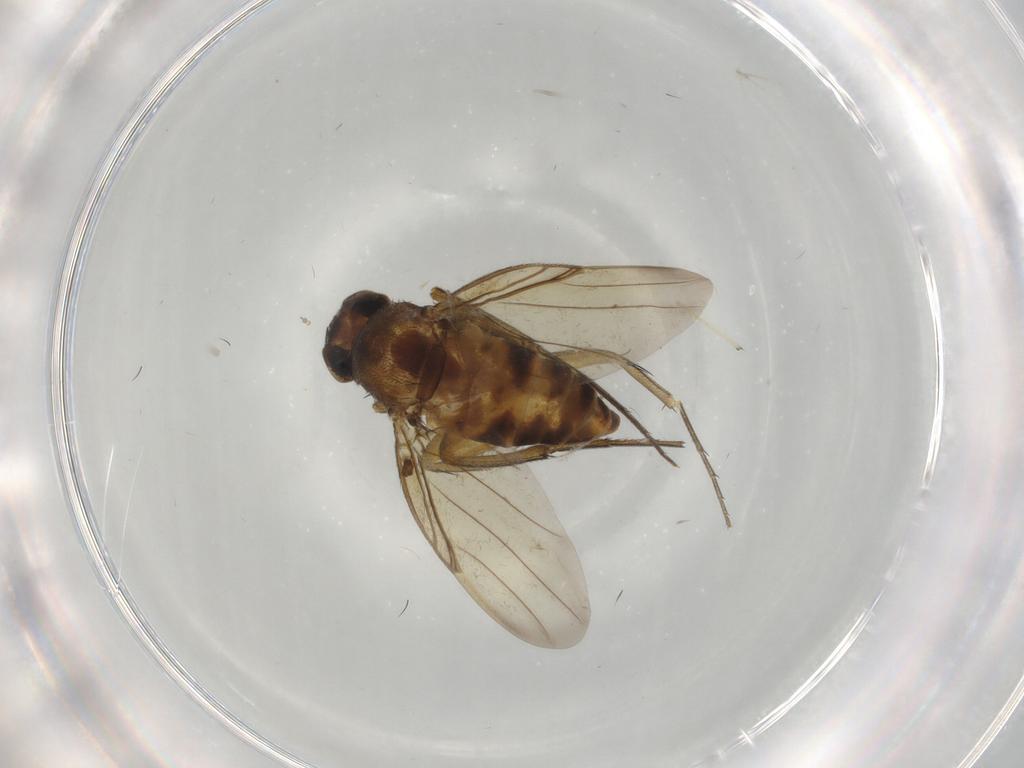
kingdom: Animalia
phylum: Arthropoda
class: Insecta
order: Diptera
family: Chironomidae
